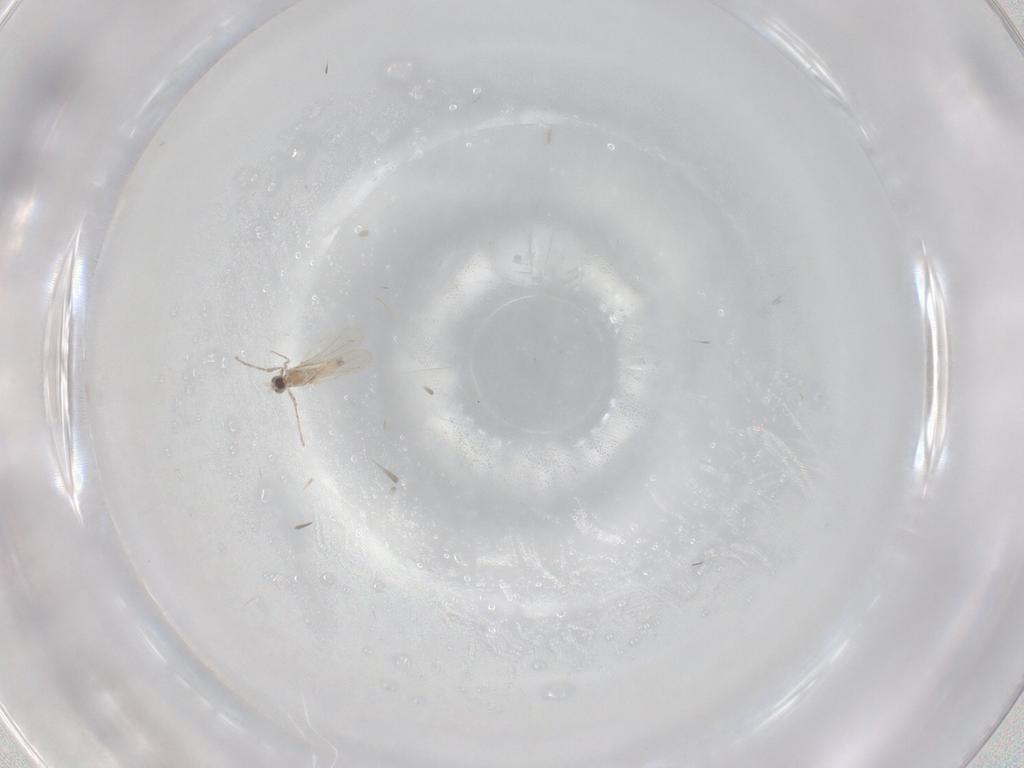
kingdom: Animalia
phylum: Arthropoda
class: Insecta
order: Diptera
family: Cecidomyiidae
